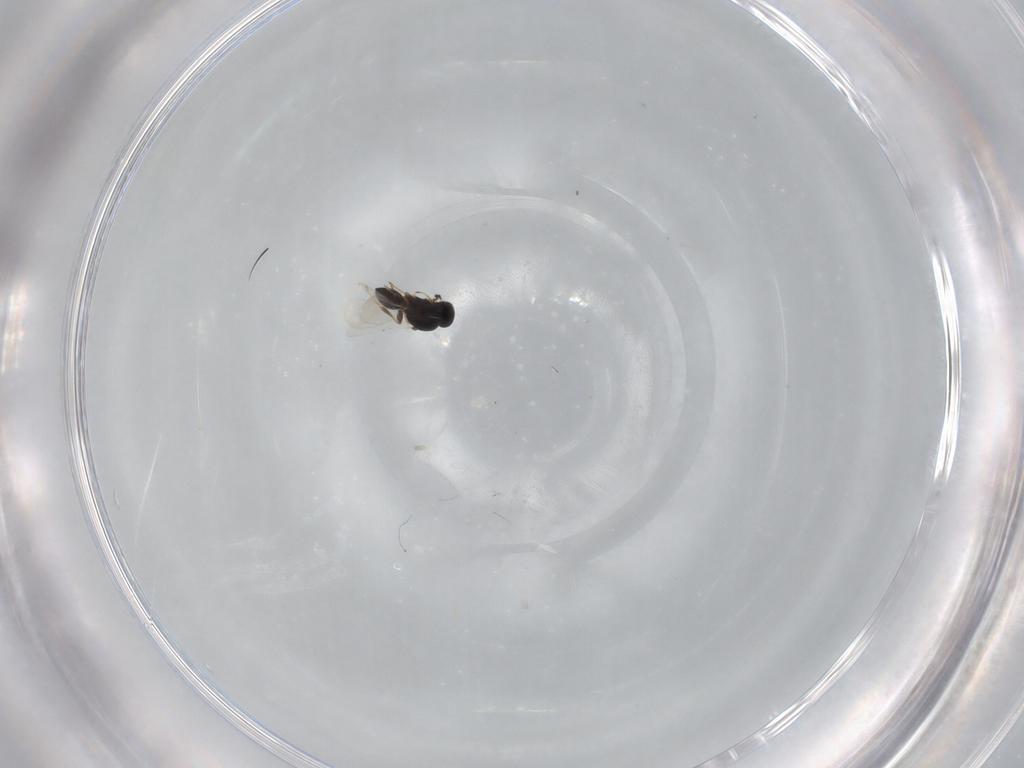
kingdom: Animalia
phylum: Arthropoda
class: Insecta
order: Hymenoptera
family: Platygastridae
